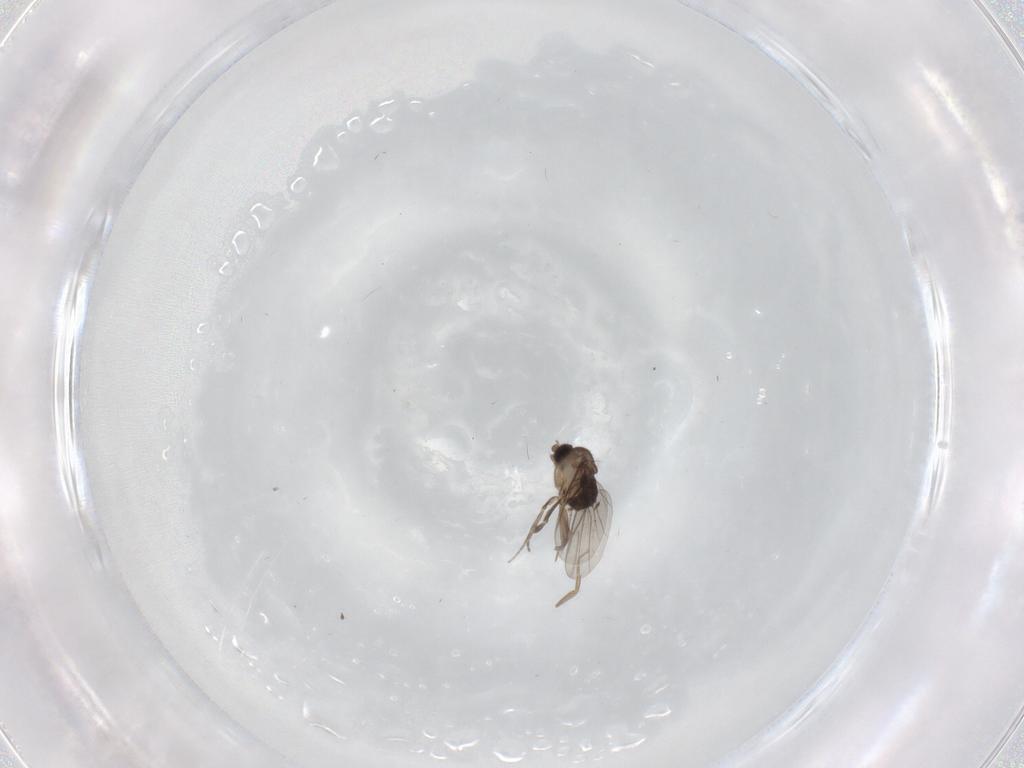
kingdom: Animalia
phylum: Arthropoda
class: Insecta
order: Diptera
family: Phoridae
